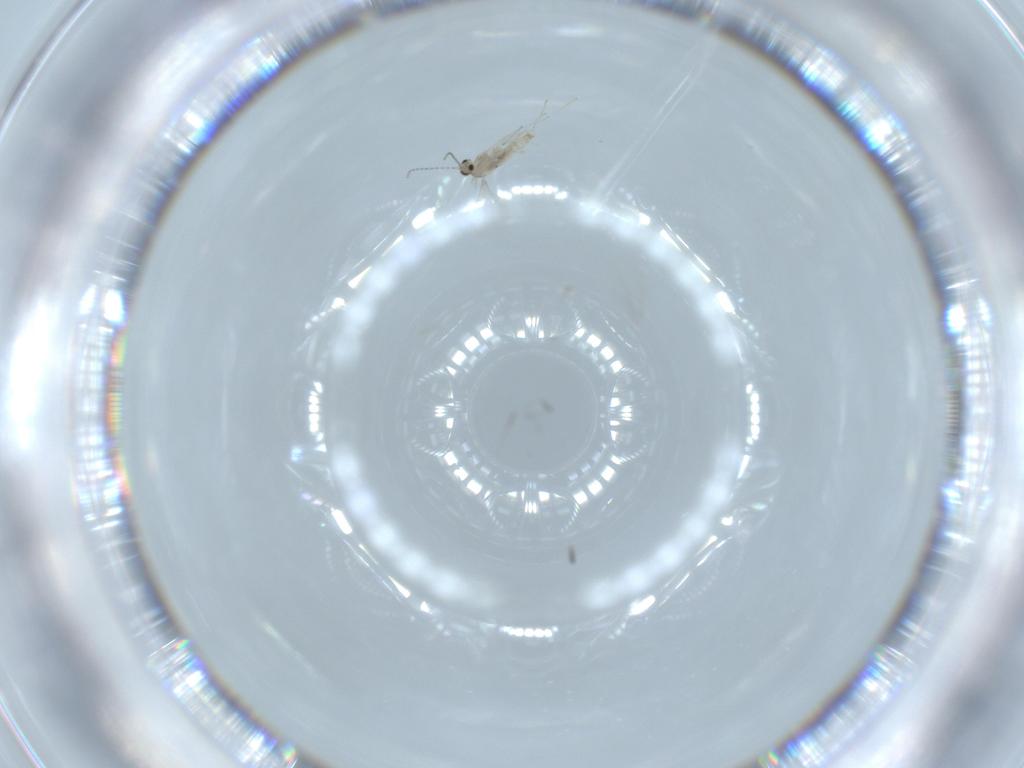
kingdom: Animalia
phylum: Arthropoda
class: Insecta
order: Diptera
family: Cecidomyiidae
